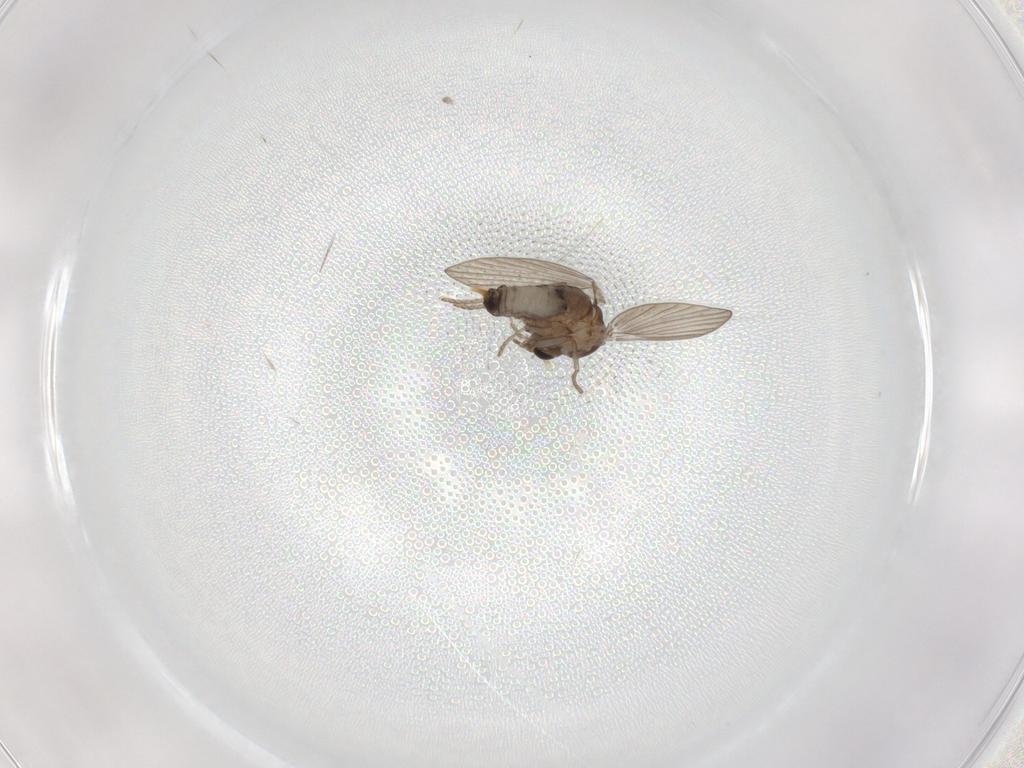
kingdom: Animalia
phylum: Arthropoda
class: Insecta
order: Diptera
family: Psychodidae
